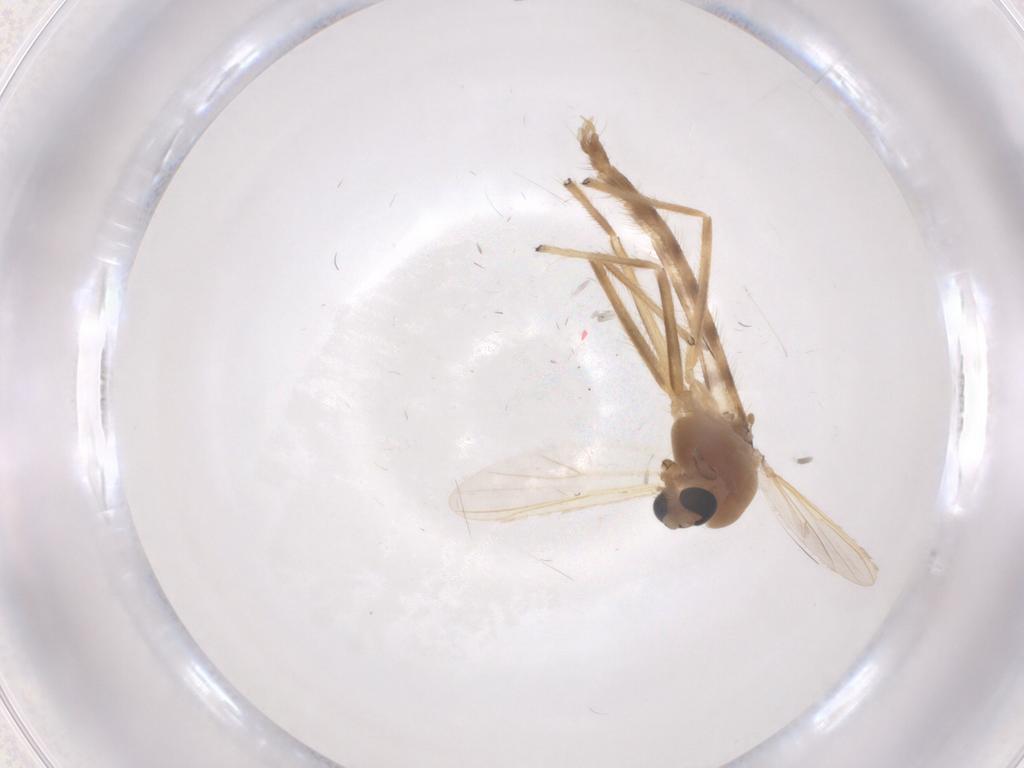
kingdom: Animalia
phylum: Arthropoda
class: Insecta
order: Diptera
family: Chironomidae
